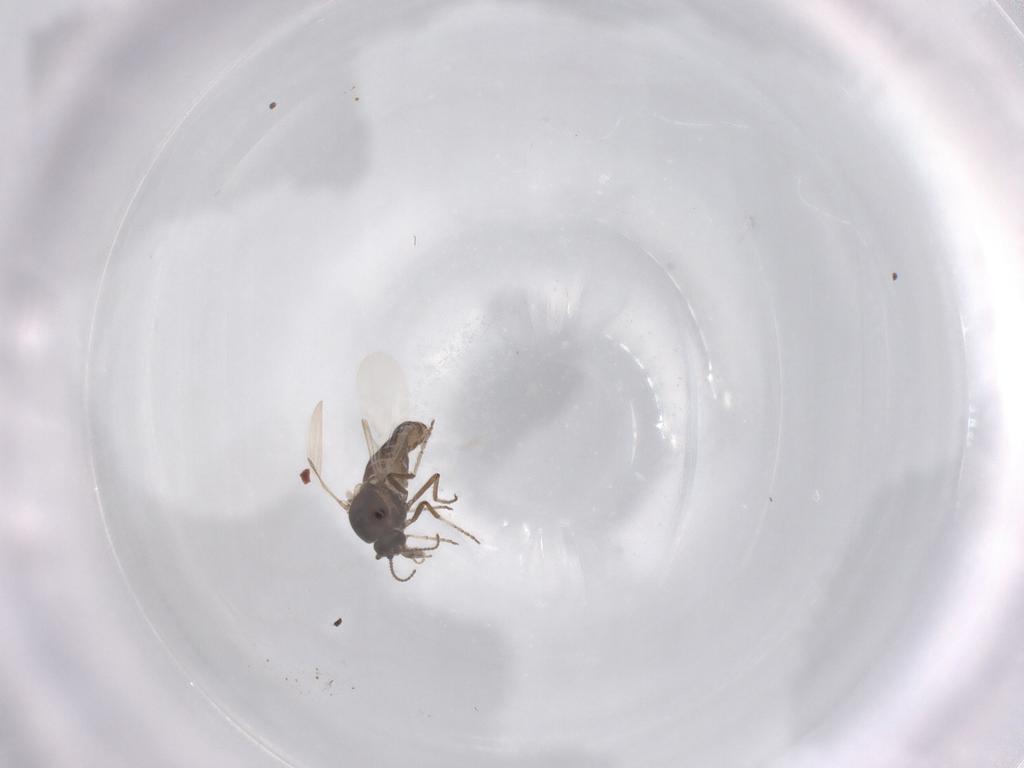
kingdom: Animalia
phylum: Arthropoda
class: Insecta
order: Diptera
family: Ceratopogonidae
